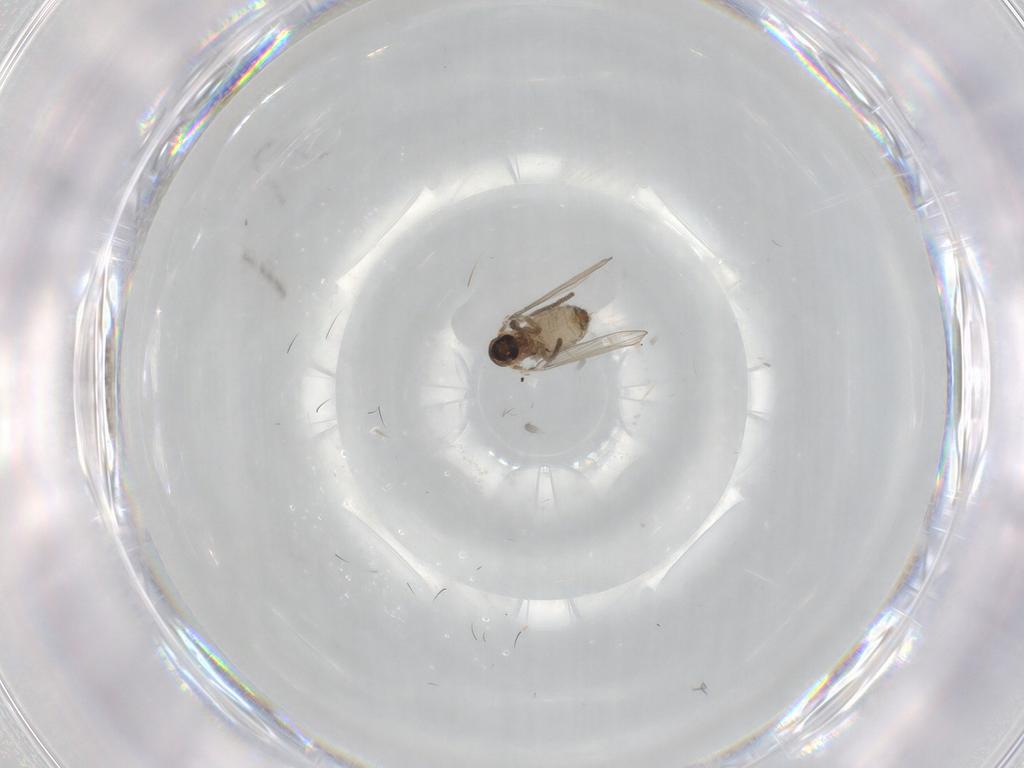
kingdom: Animalia
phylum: Arthropoda
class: Insecta
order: Diptera
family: Psychodidae
